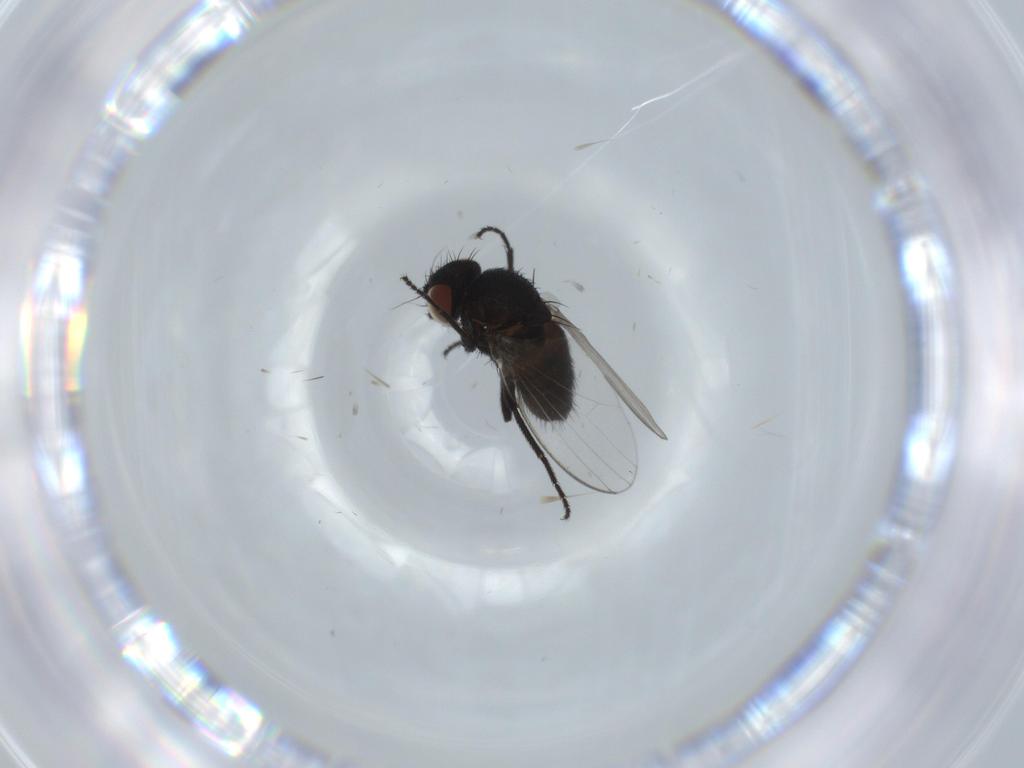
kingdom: Animalia
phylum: Arthropoda
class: Insecta
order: Diptera
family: Milichiidae
